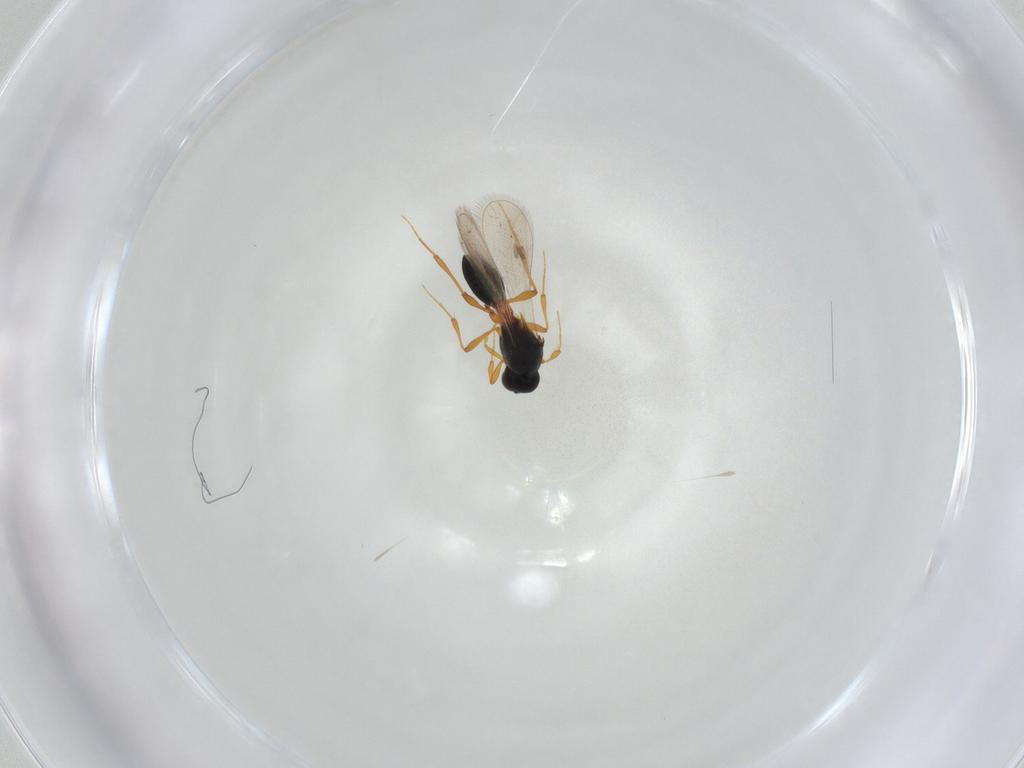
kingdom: Animalia
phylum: Arthropoda
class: Insecta
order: Hymenoptera
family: Platygastridae
